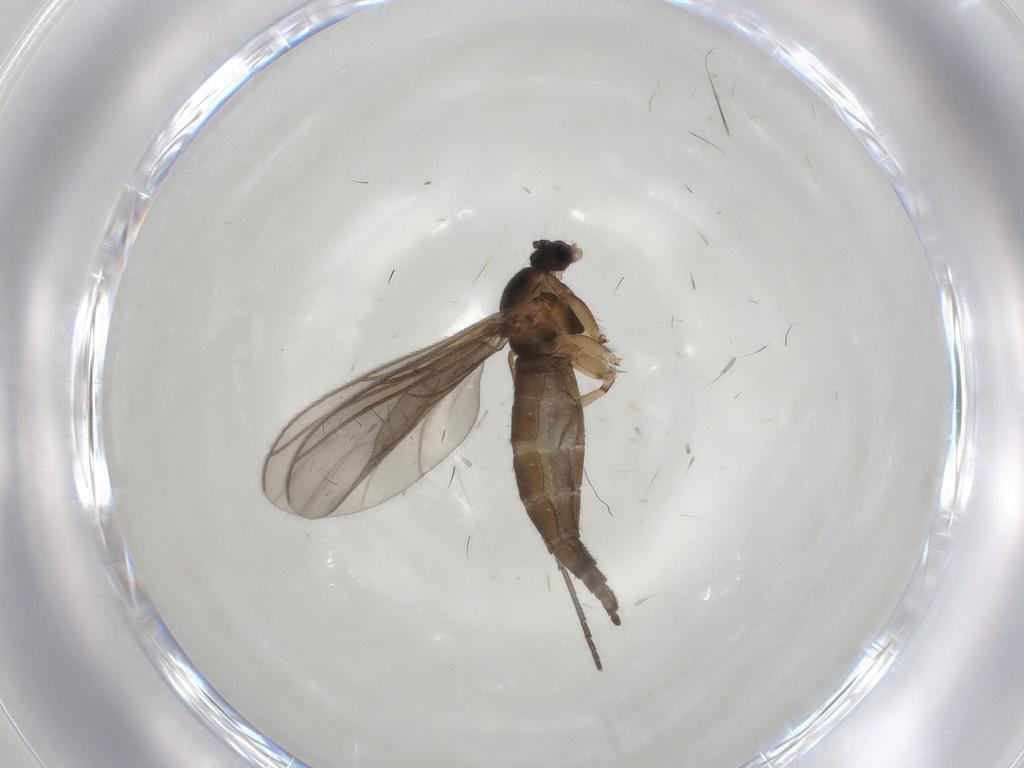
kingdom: Animalia
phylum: Arthropoda
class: Insecta
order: Diptera
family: Sciaridae
